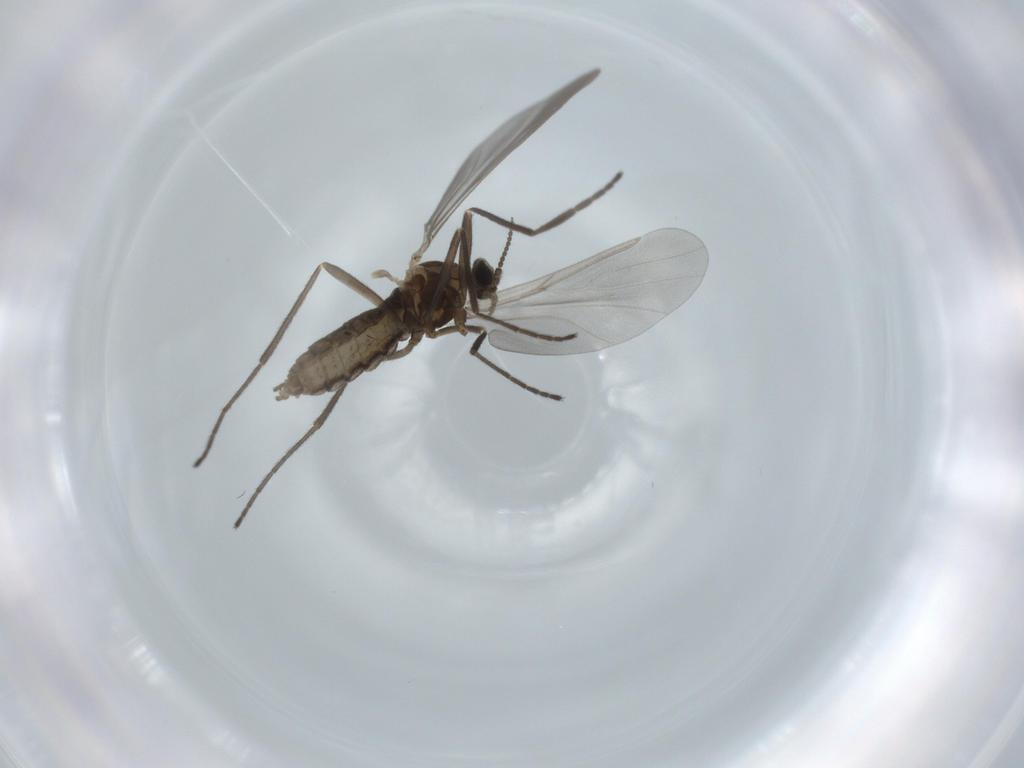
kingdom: Animalia
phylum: Arthropoda
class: Insecta
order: Diptera
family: Cecidomyiidae
